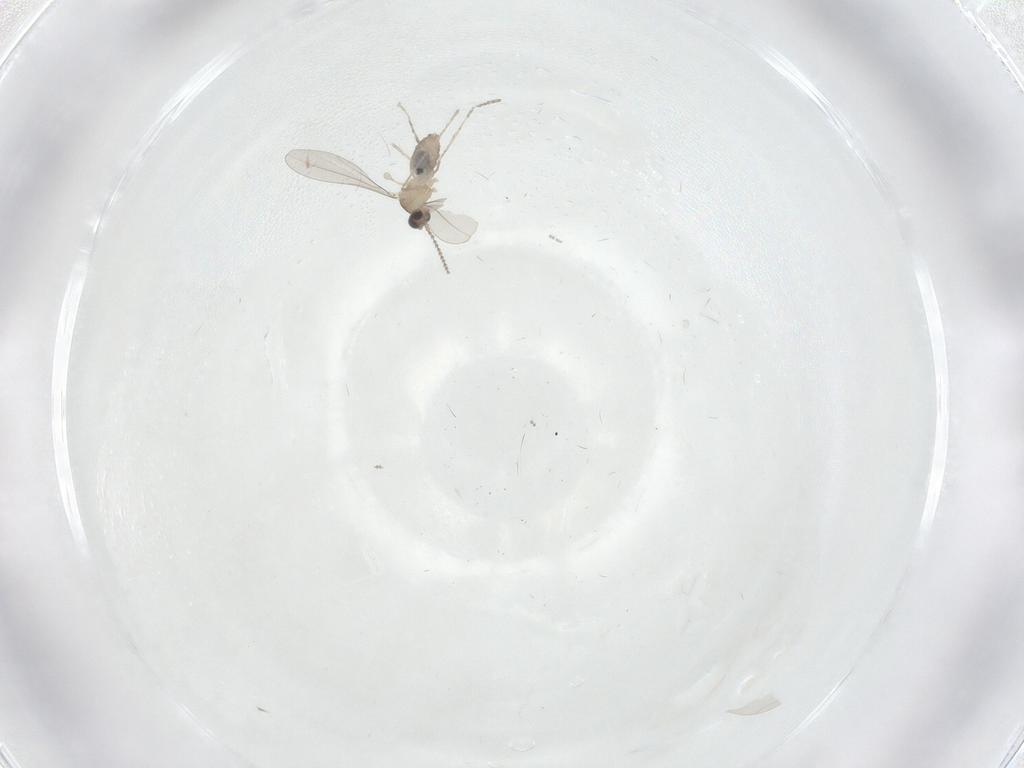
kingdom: Animalia
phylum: Arthropoda
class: Insecta
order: Diptera
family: Cecidomyiidae
